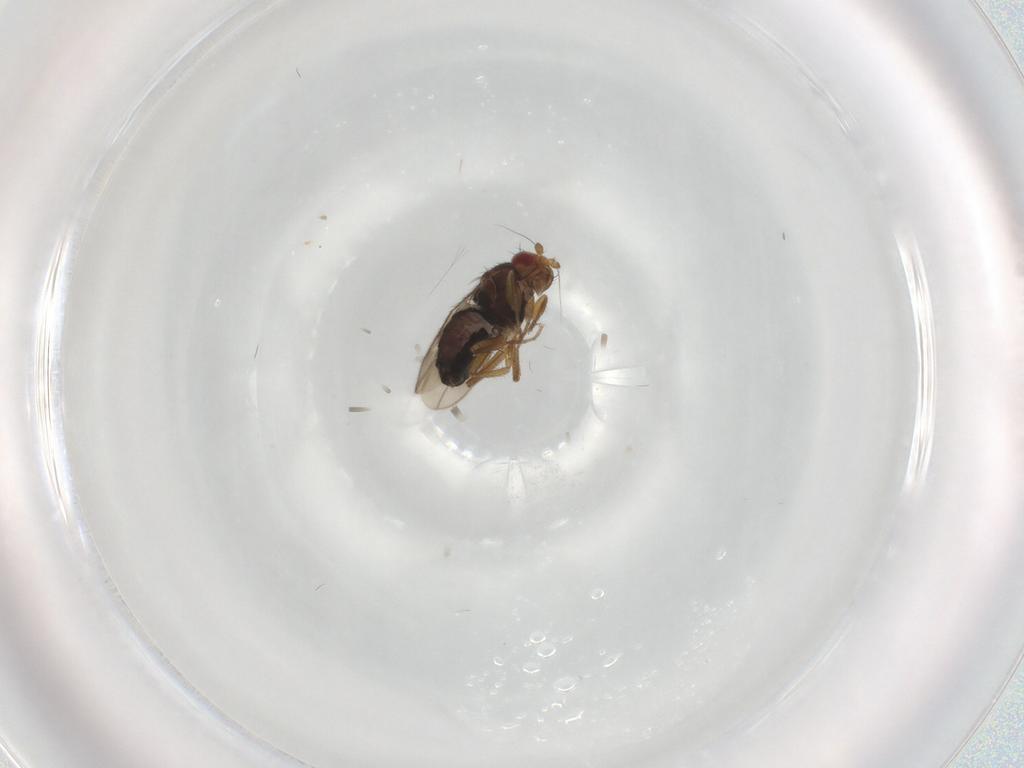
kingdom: Animalia
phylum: Arthropoda
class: Insecta
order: Diptera
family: Sphaeroceridae
